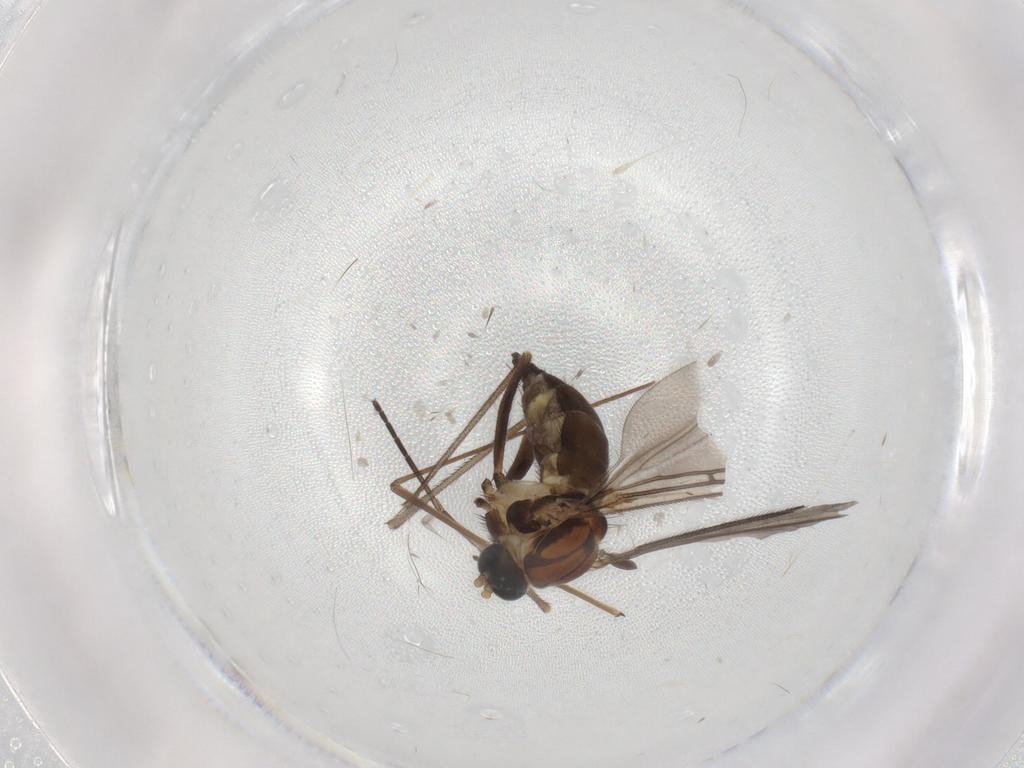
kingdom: Animalia
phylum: Arthropoda
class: Insecta
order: Diptera
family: Sciaridae
